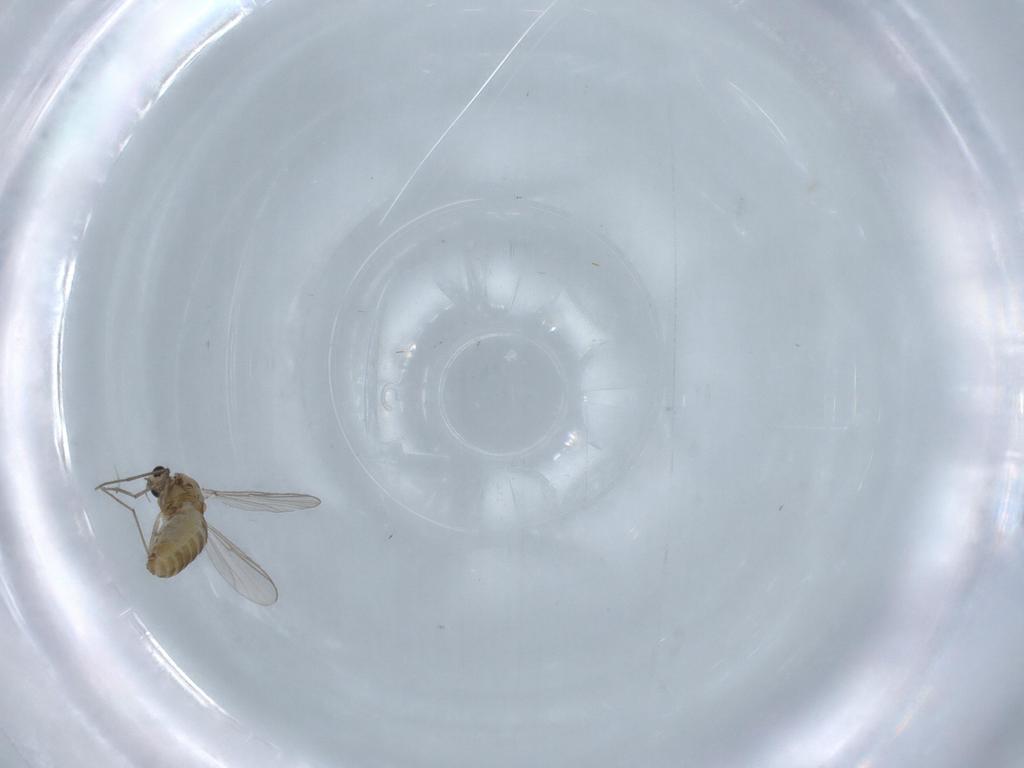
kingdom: Animalia
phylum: Arthropoda
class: Insecta
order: Diptera
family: Chironomidae
